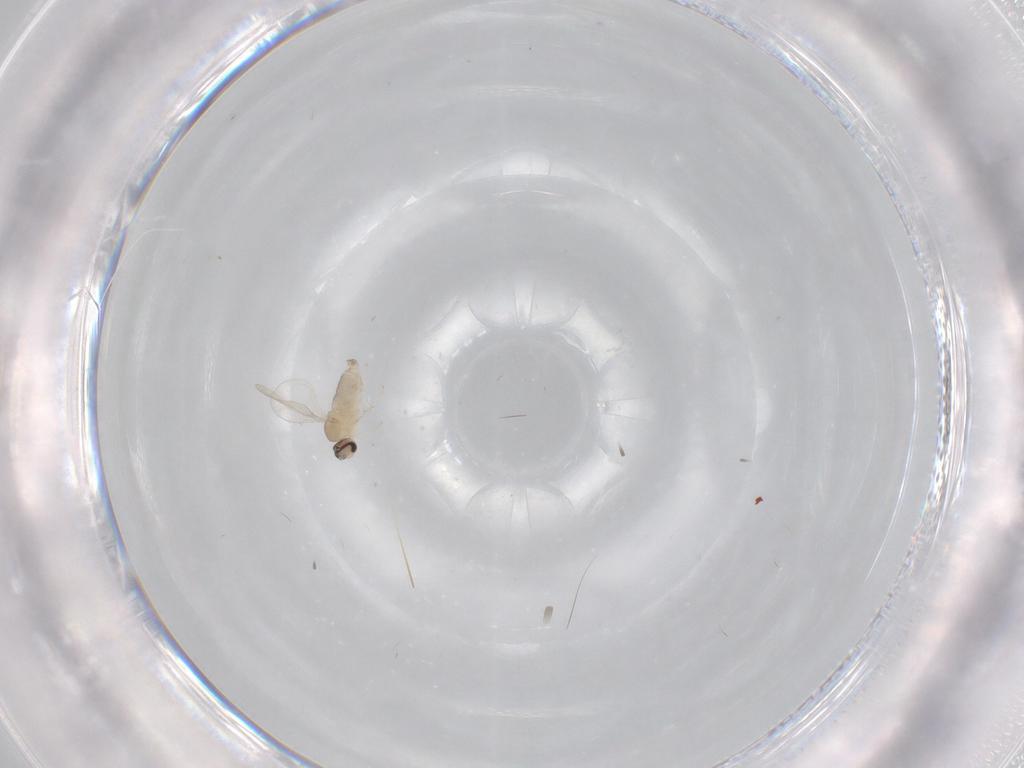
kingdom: Animalia
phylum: Arthropoda
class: Insecta
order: Diptera
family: Cecidomyiidae
